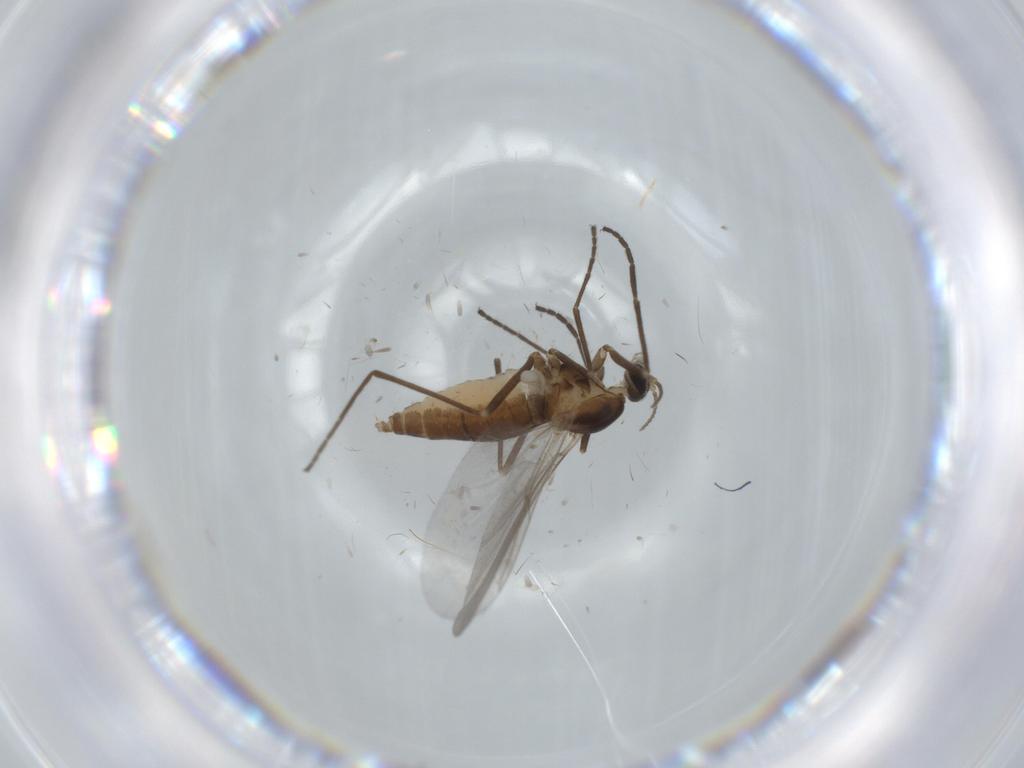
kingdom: Animalia
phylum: Arthropoda
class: Insecta
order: Diptera
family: Cecidomyiidae
